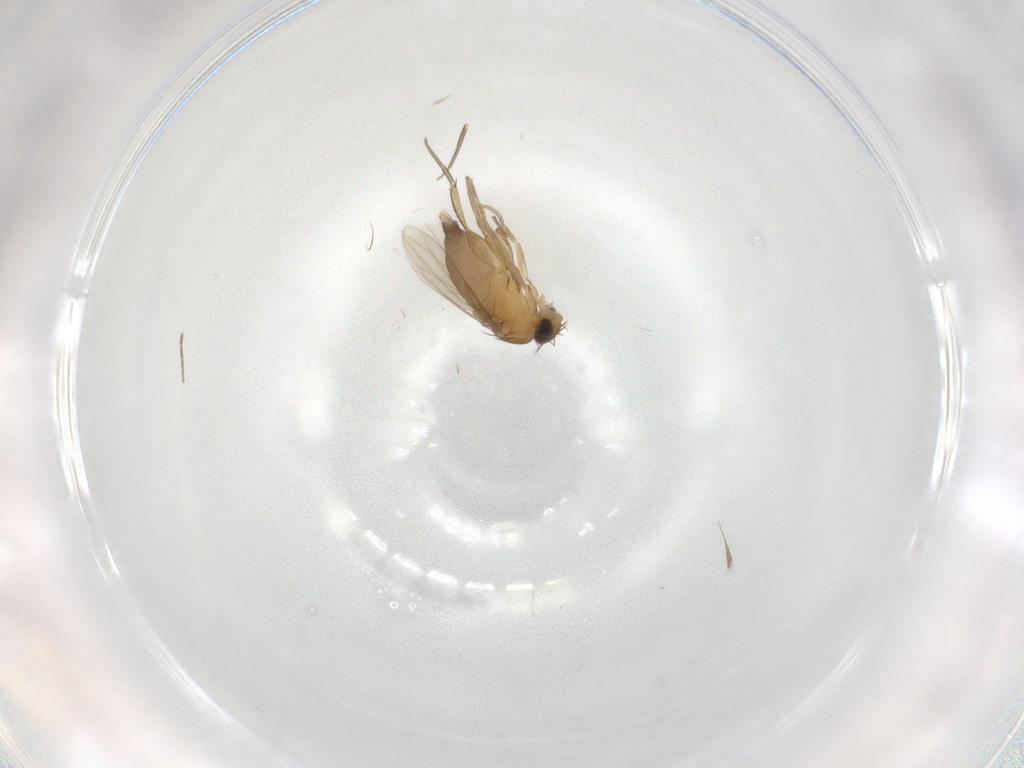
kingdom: Animalia
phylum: Arthropoda
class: Insecta
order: Diptera
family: Phoridae
